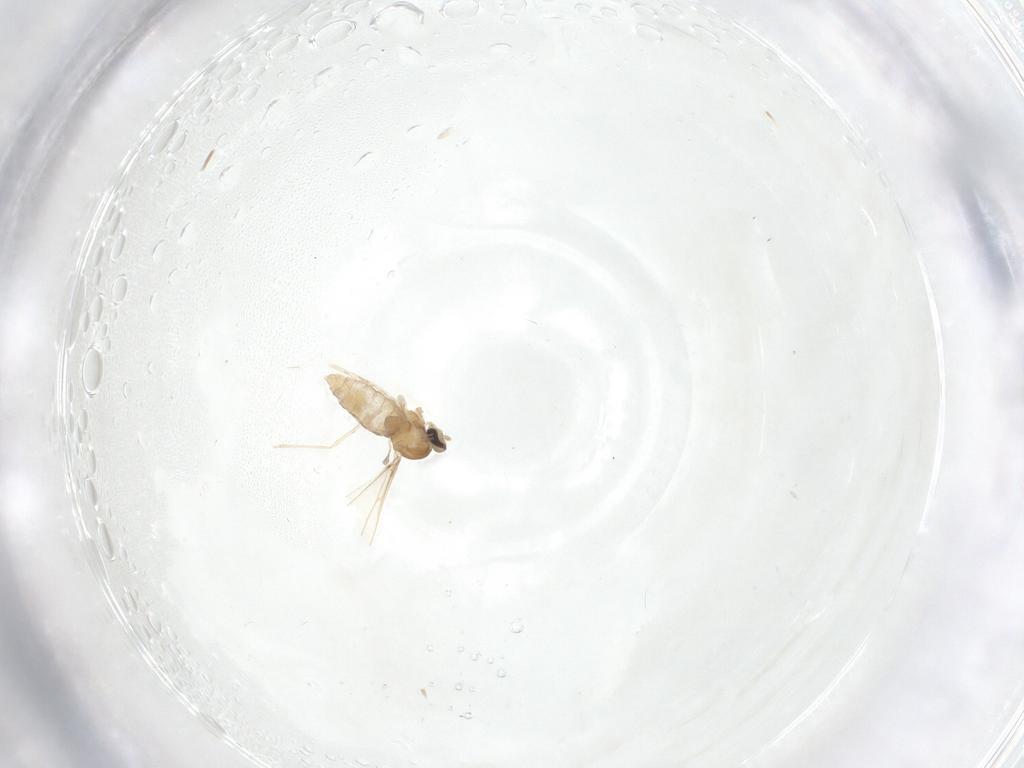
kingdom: Animalia
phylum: Arthropoda
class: Insecta
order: Diptera
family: Cecidomyiidae
